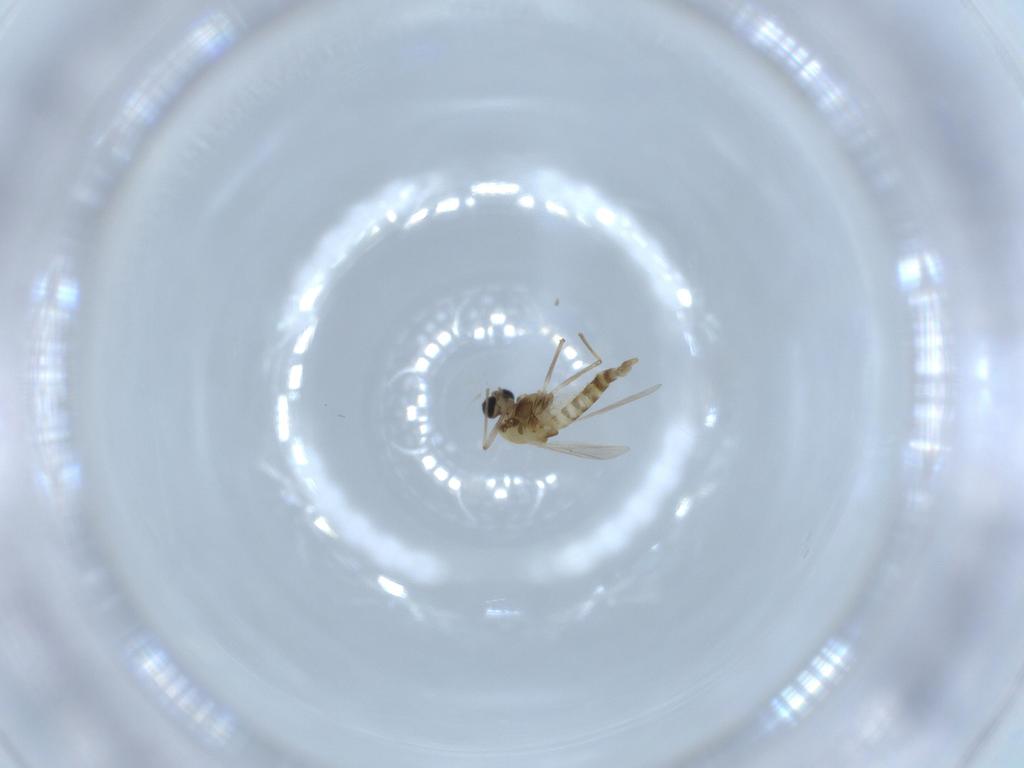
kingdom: Animalia
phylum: Arthropoda
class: Insecta
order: Diptera
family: Chironomidae
